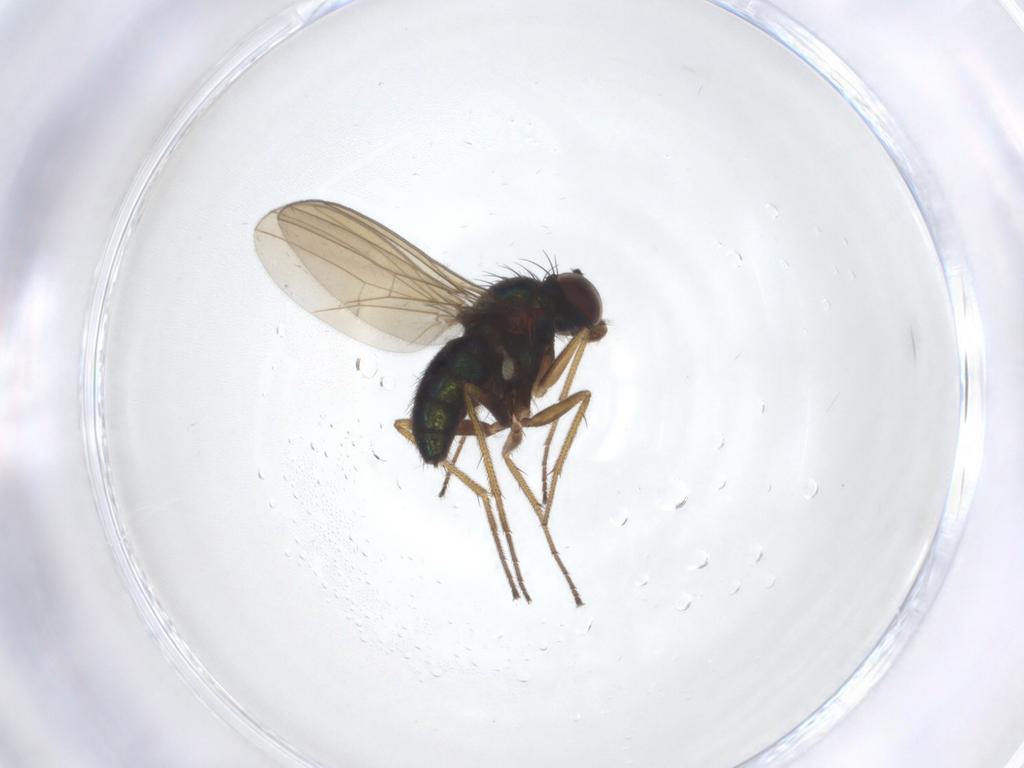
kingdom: Animalia
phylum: Arthropoda
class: Insecta
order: Diptera
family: Dolichopodidae
